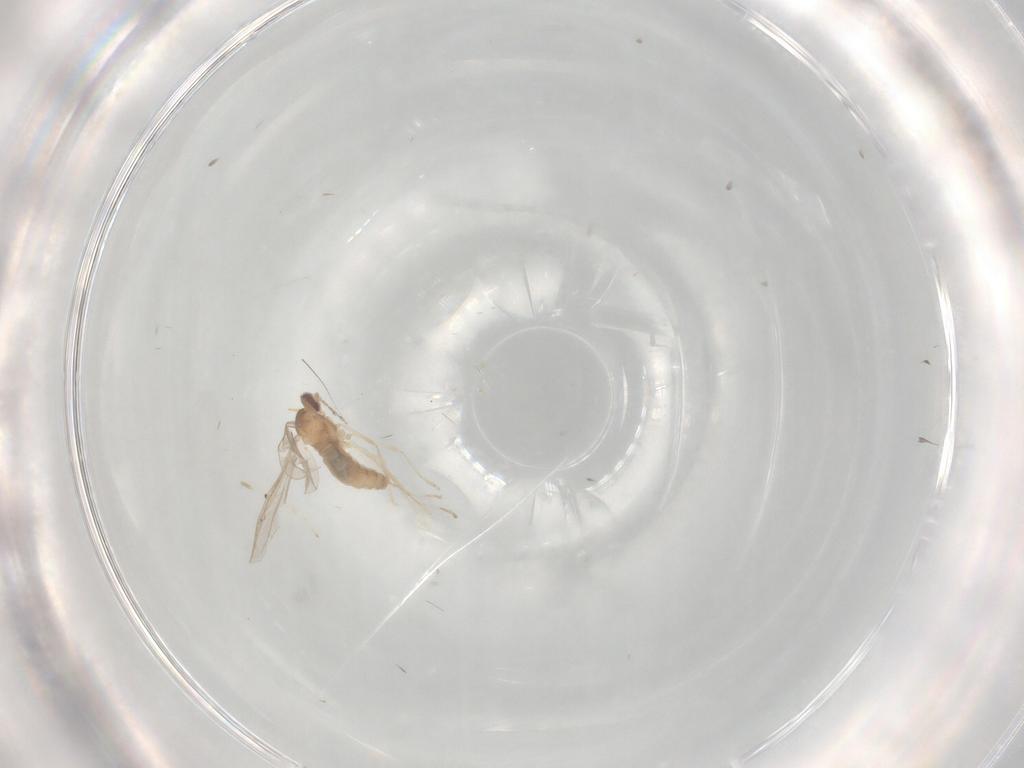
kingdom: Animalia
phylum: Arthropoda
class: Insecta
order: Diptera
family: Cecidomyiidae
